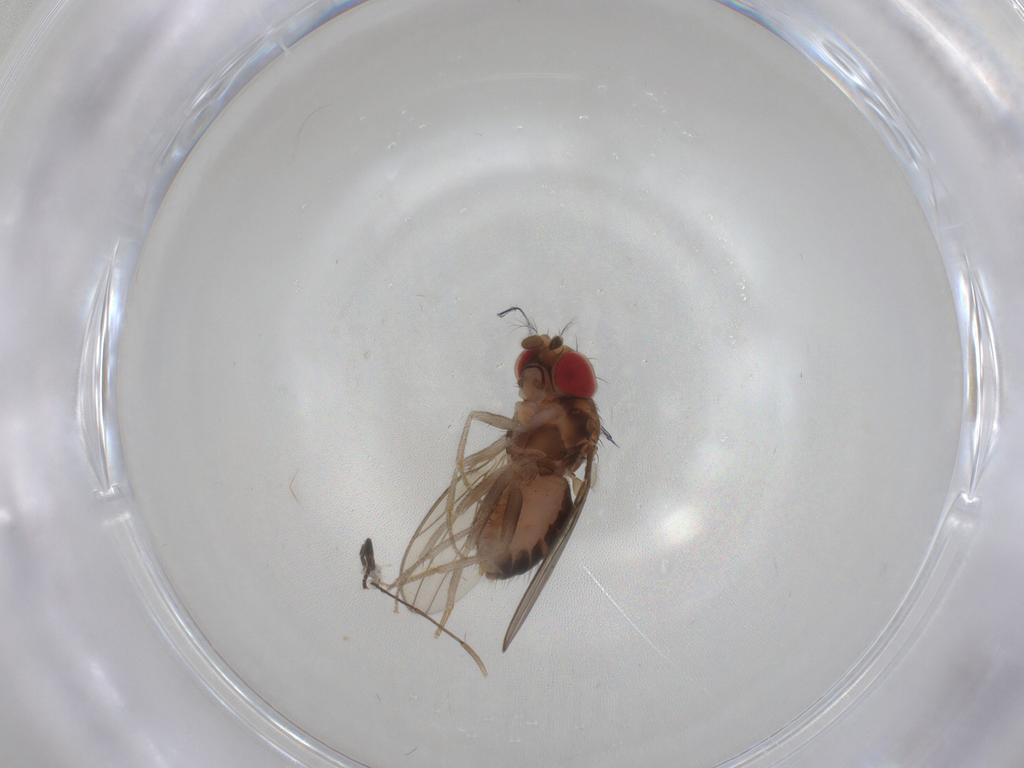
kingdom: Animalia
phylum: Arthropoda
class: Insecta
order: Diptera
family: Drosophilidae
